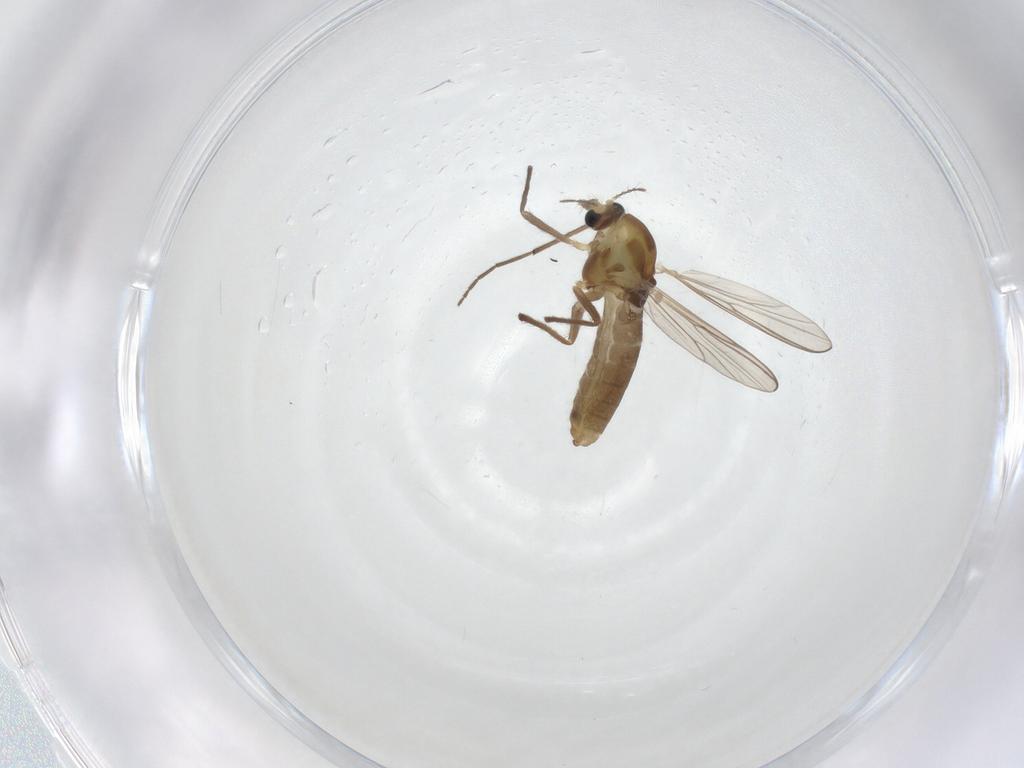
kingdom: Animalia
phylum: Arthropoda
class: Insecta
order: Diptera
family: Chironomidae
